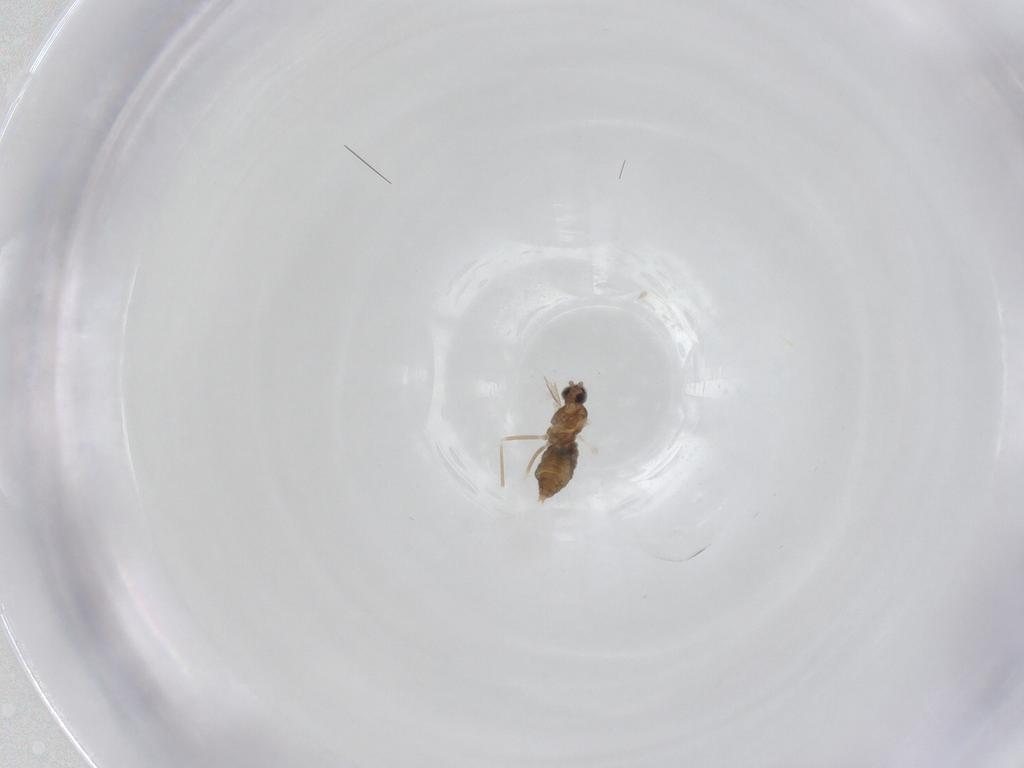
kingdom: Animalia
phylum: Arthropoda
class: Insecta
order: Diptera
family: Cecidomyiidae
